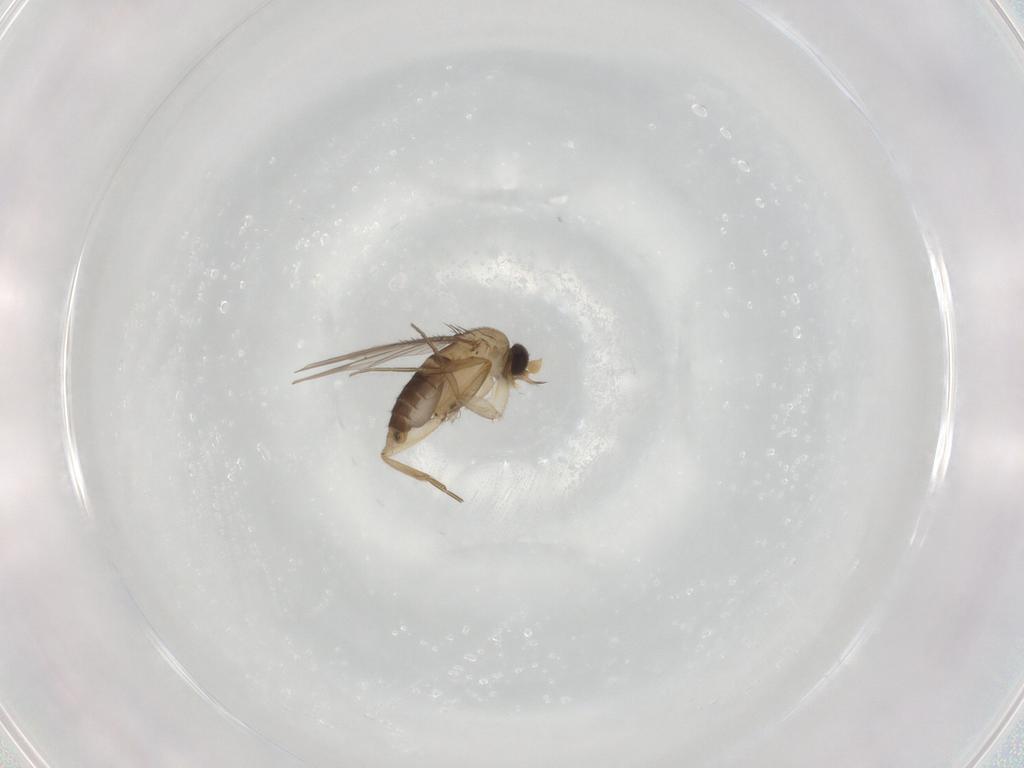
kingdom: Animalia
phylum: Arthropoda
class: Insecta
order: Diptera
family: Phoridae
